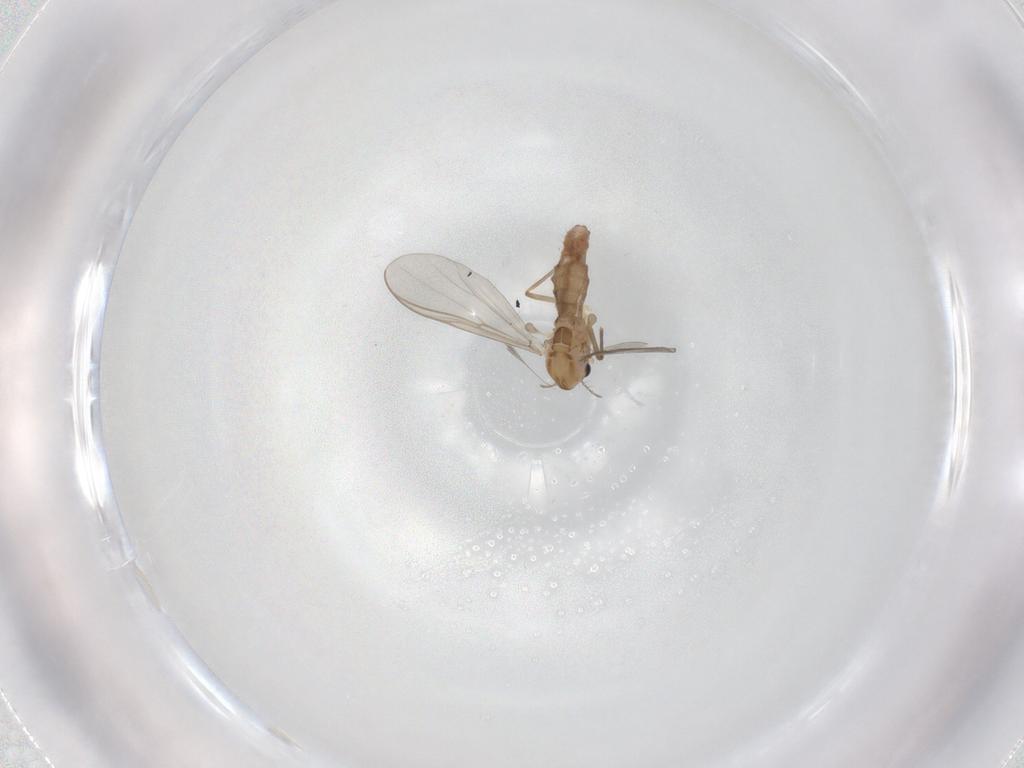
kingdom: Animalia
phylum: Arthropoda
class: Insecta
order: Diptera
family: Chironomidae
